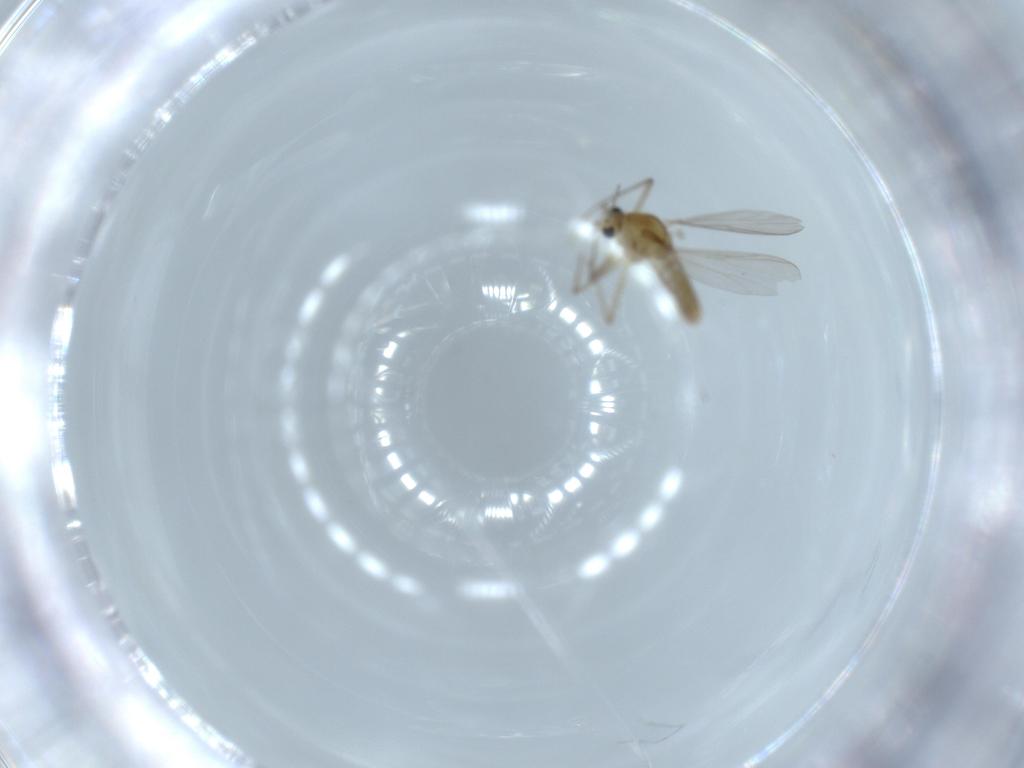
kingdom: Animalia
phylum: Arthropoda
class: Insecta
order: Diptera
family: Chironomidae
